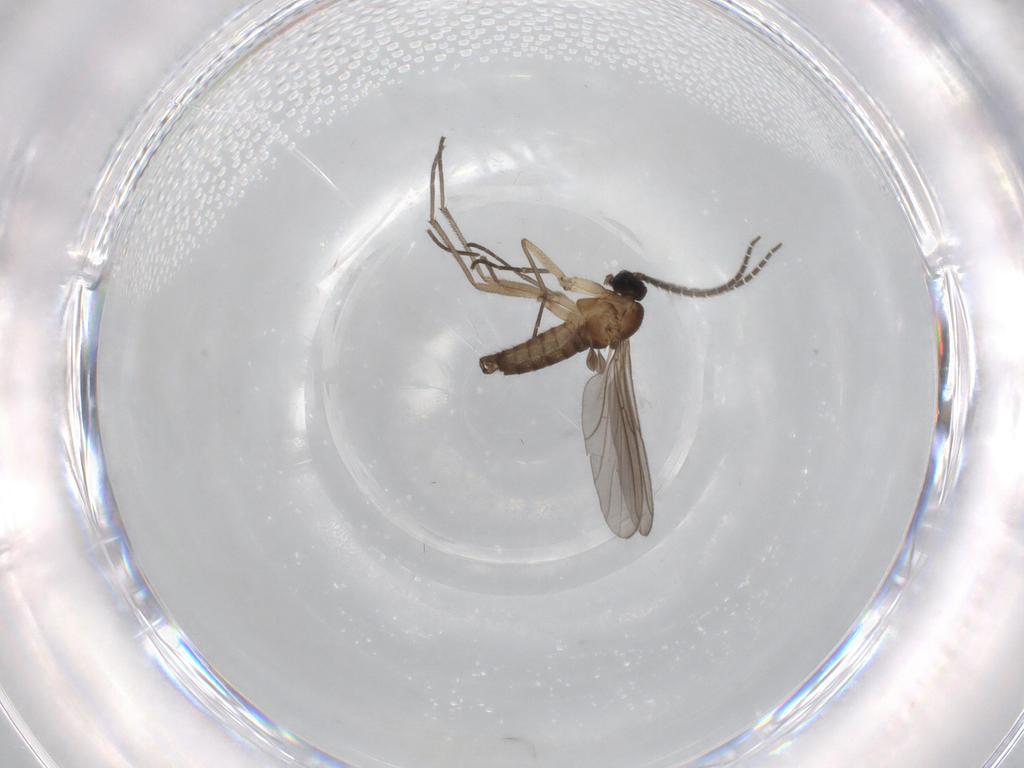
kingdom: Animalia
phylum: Arthropoda
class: Insecta
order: Diptera
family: Sciaridae
